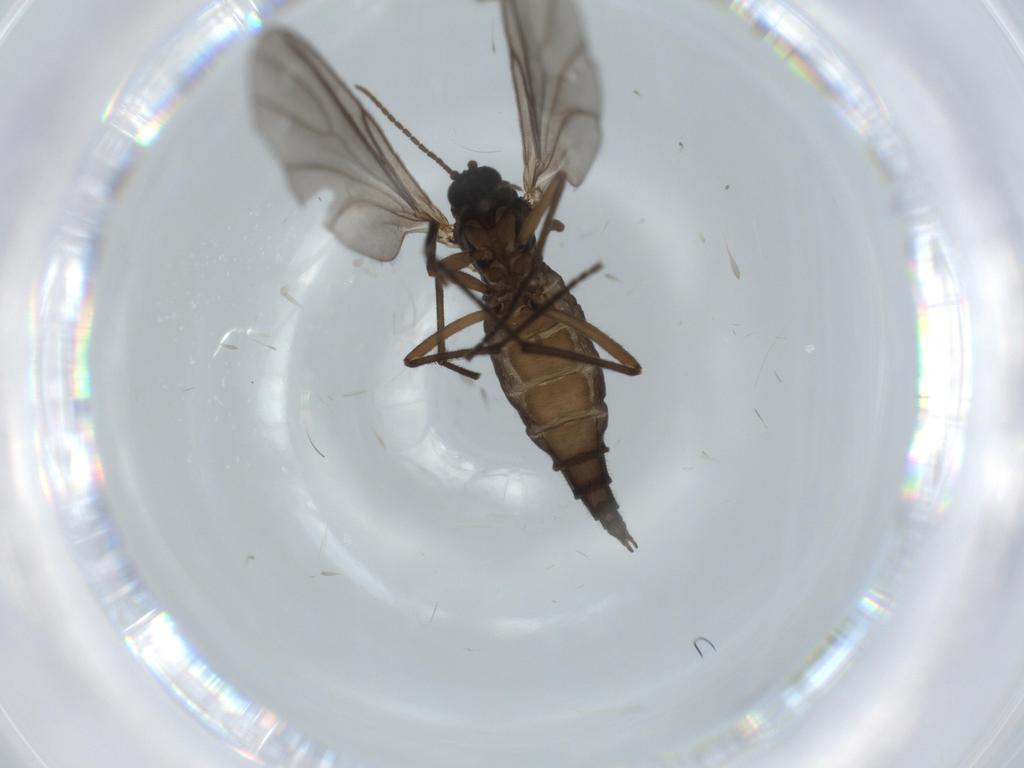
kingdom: Animalia
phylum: Arthropoda
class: Insecta
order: Diptera
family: Sciaridae
